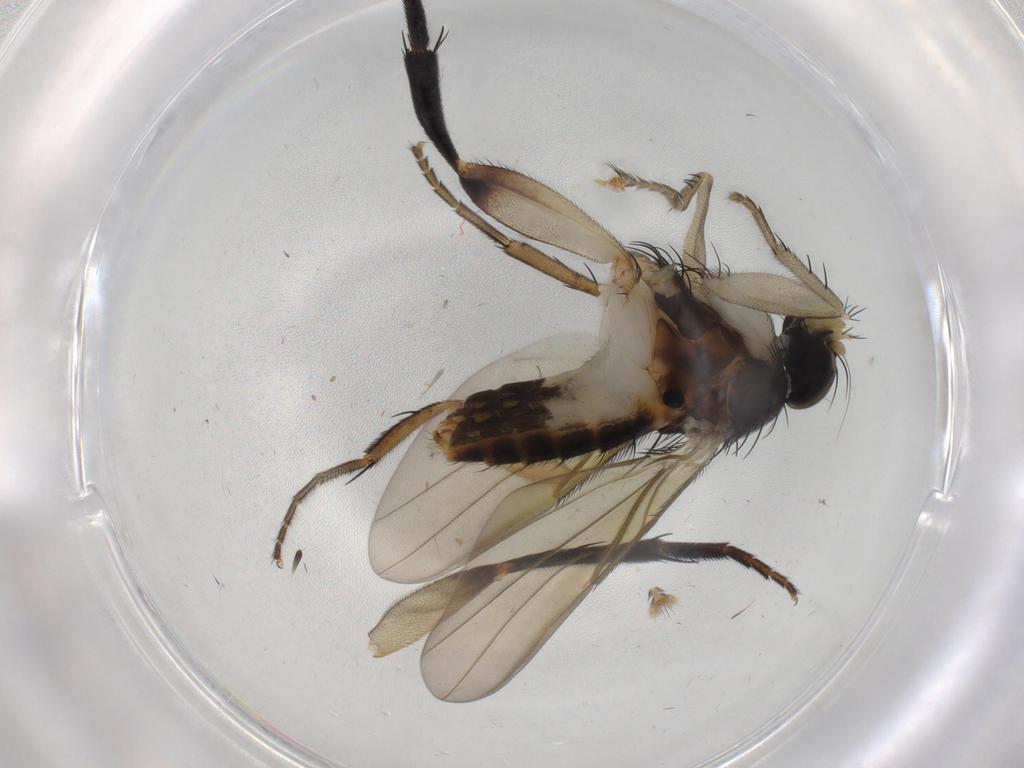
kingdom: Animalia
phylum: Arthropoda
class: Insecta
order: Diptera
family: Phoridae
